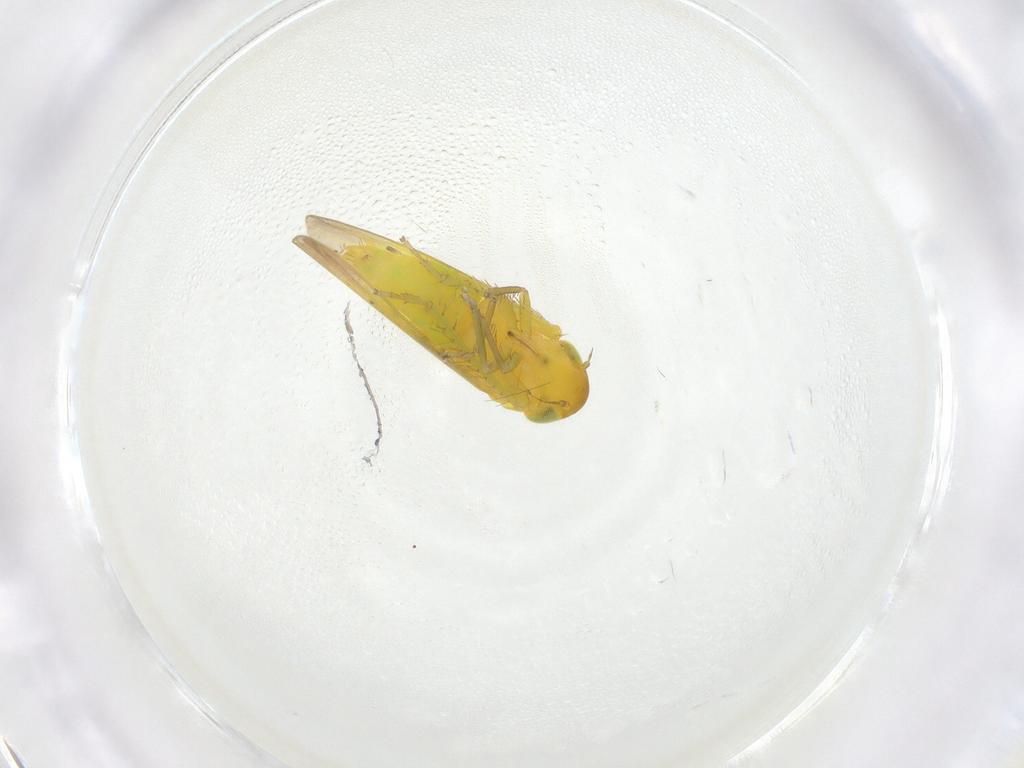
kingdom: Animalia
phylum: Arthropoda
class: Insecta
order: Hemiptera
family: Cicadellidae
